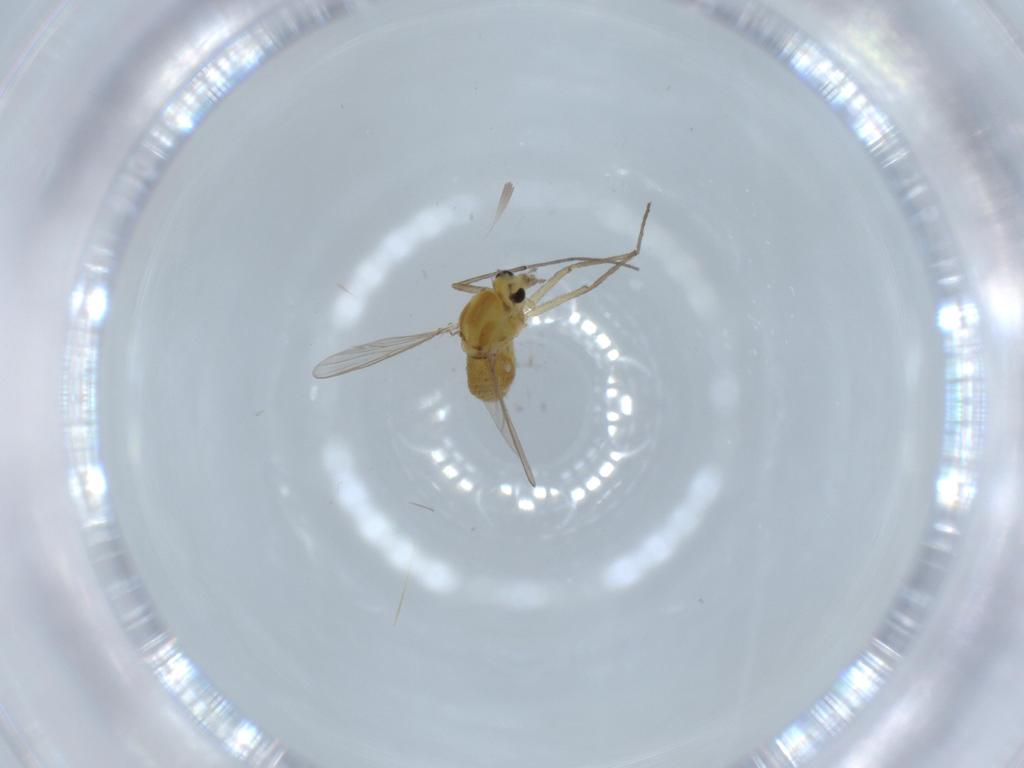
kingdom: Animalia
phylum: Arthropoda
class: Insecta
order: Diptera
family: Chironomidae
